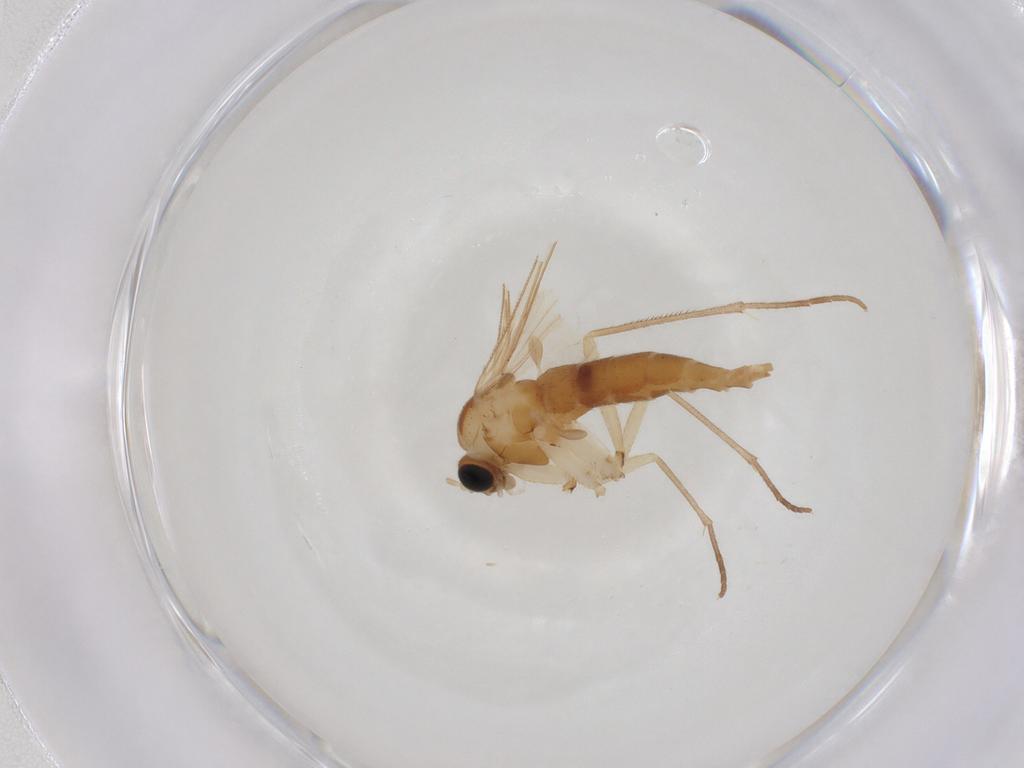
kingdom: Animalia
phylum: Arthropoda
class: Insecta
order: Diptera
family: Sciaridae
